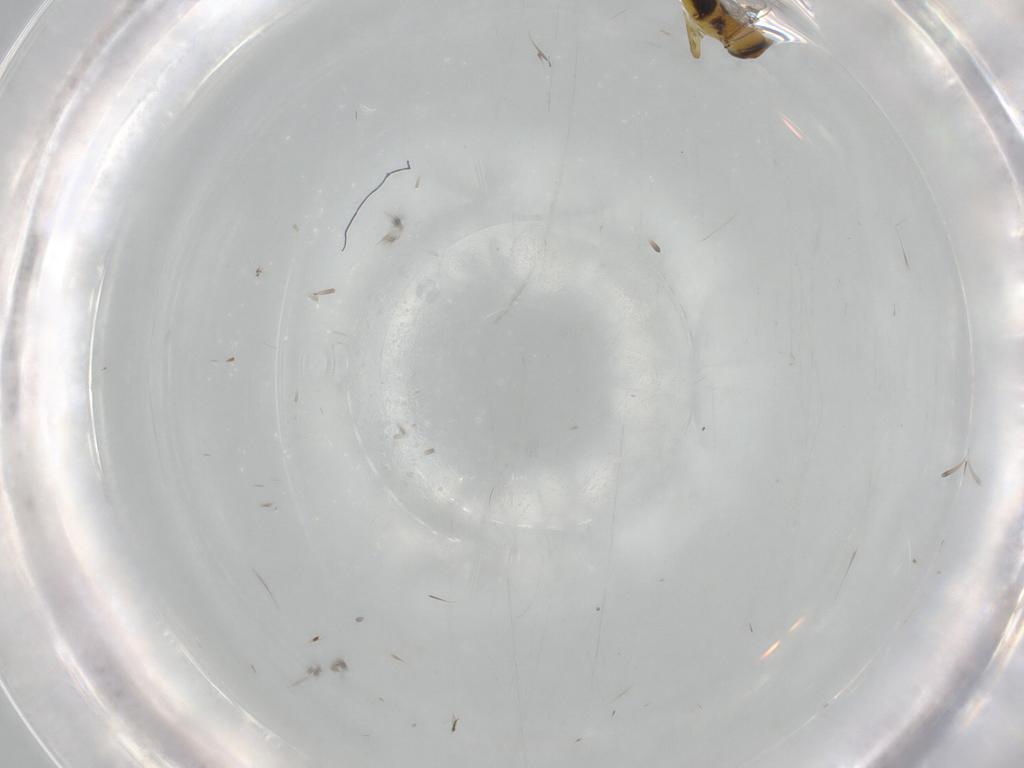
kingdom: Animalia
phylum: Arthropoda
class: Insecta
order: Hymenoptera
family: Formicidae
